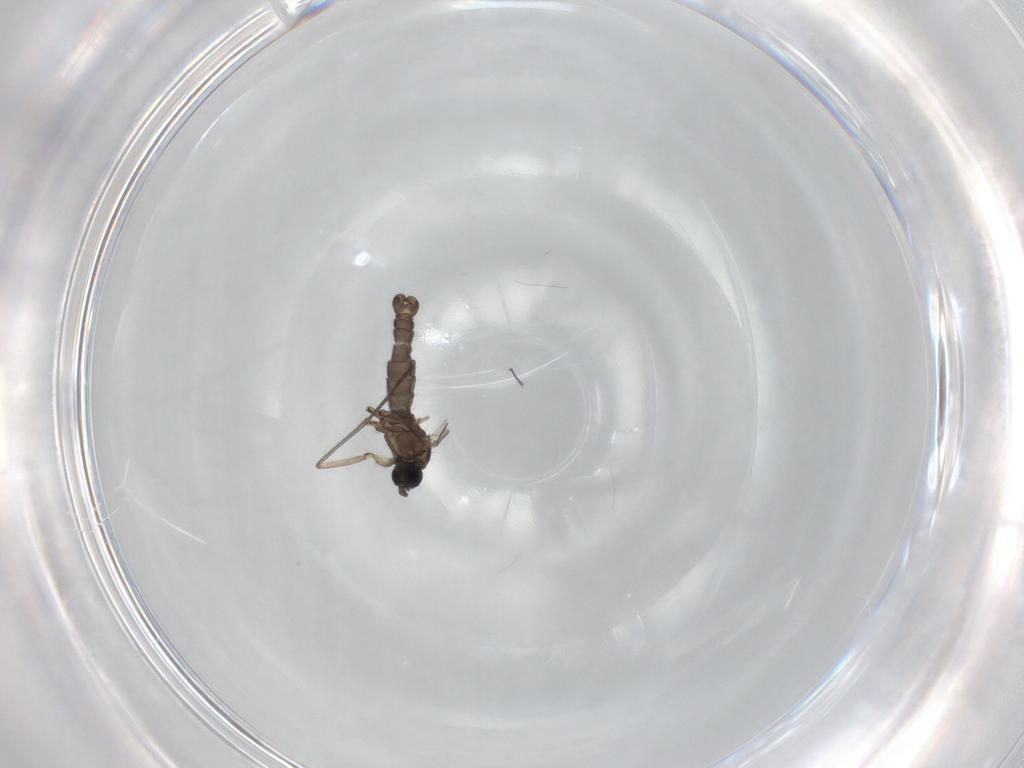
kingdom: Animalia
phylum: Arthropoda
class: Insecta
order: Diptera
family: Sciaridae
